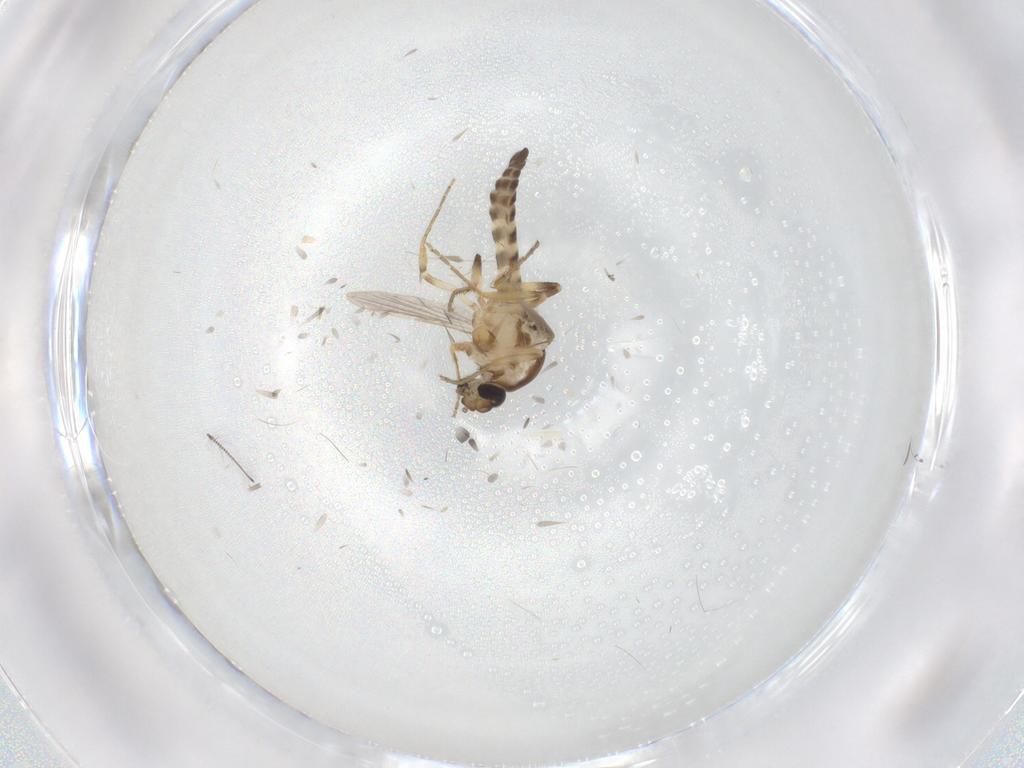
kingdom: Animalia
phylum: Arthropoda
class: Insecta
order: Diptera
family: Ceratopogonidae
